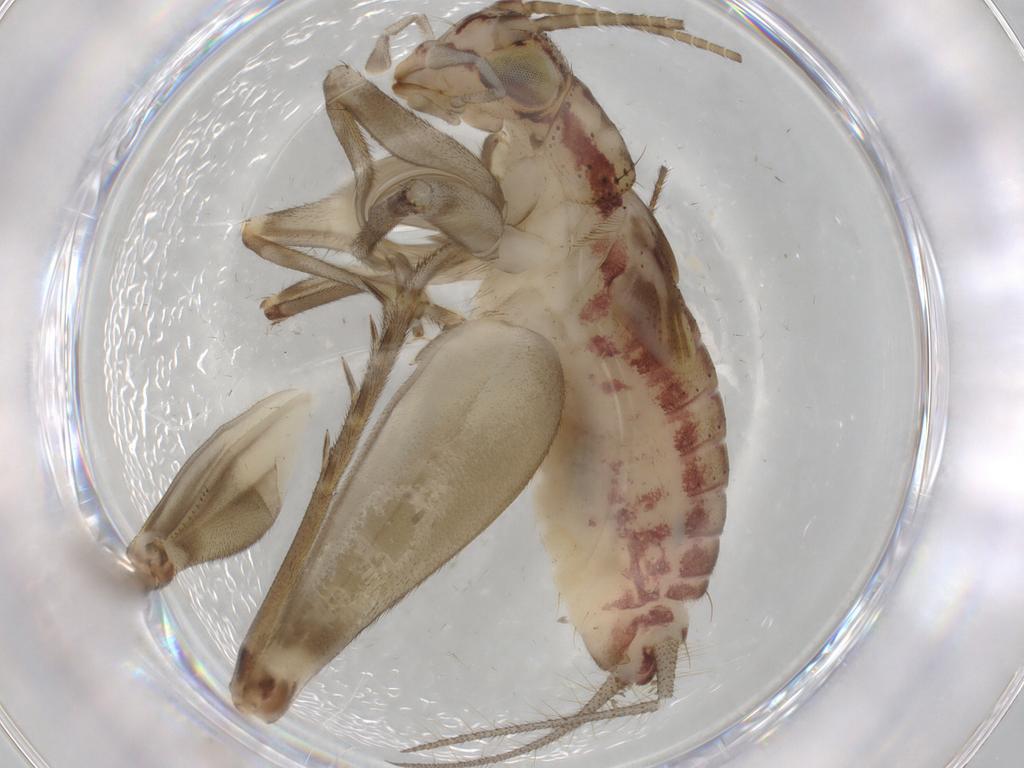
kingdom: Animalia
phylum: Arthropoda
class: Insecta
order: Orthoptera
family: Trigonidiidae
